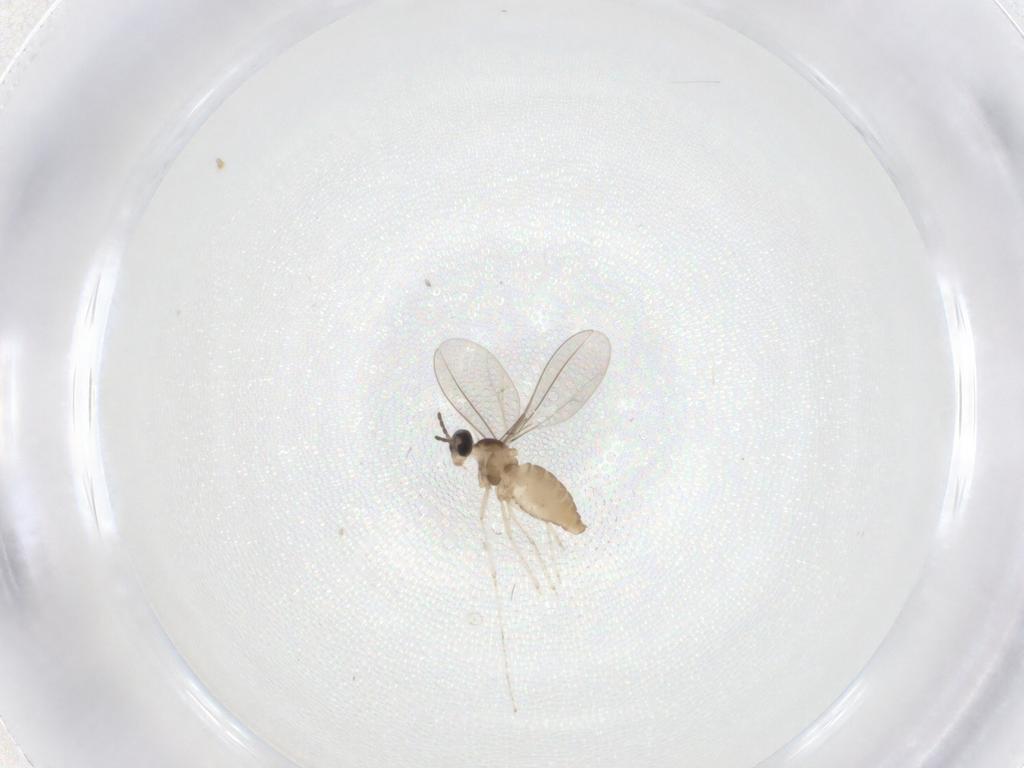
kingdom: Animalia
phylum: Arthropoda
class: Insecta
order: Diptera
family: Cecidomyiidae
